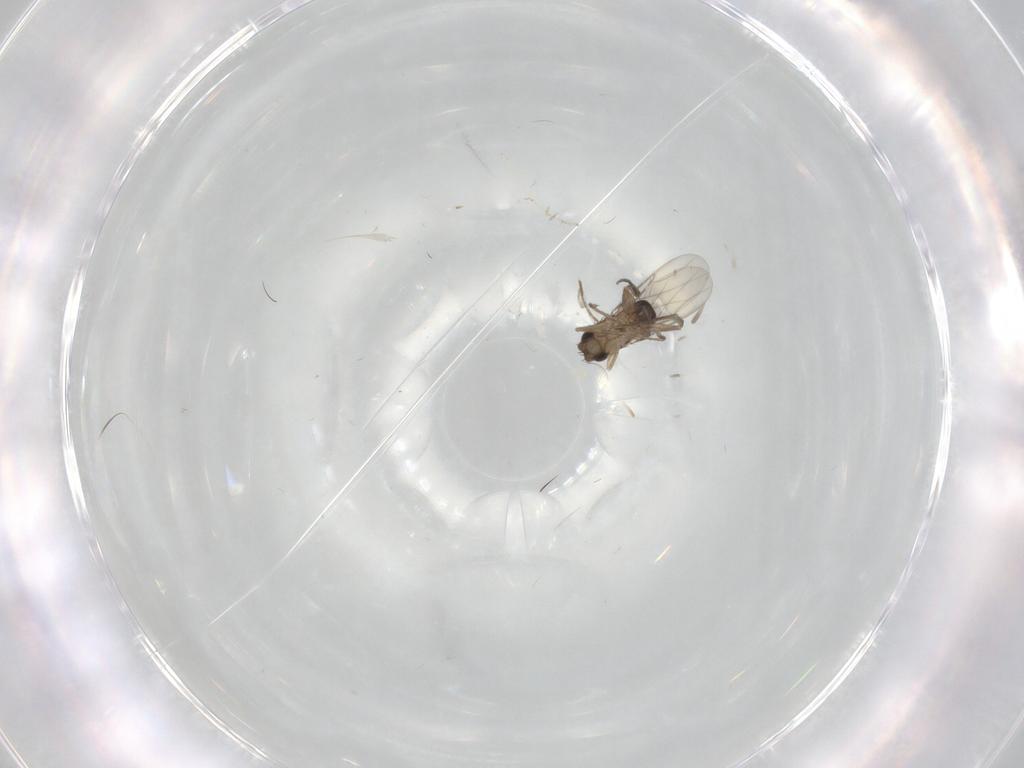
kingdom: Animalia
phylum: Arthropoda
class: Insecta
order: Diptera
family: Phoridae
